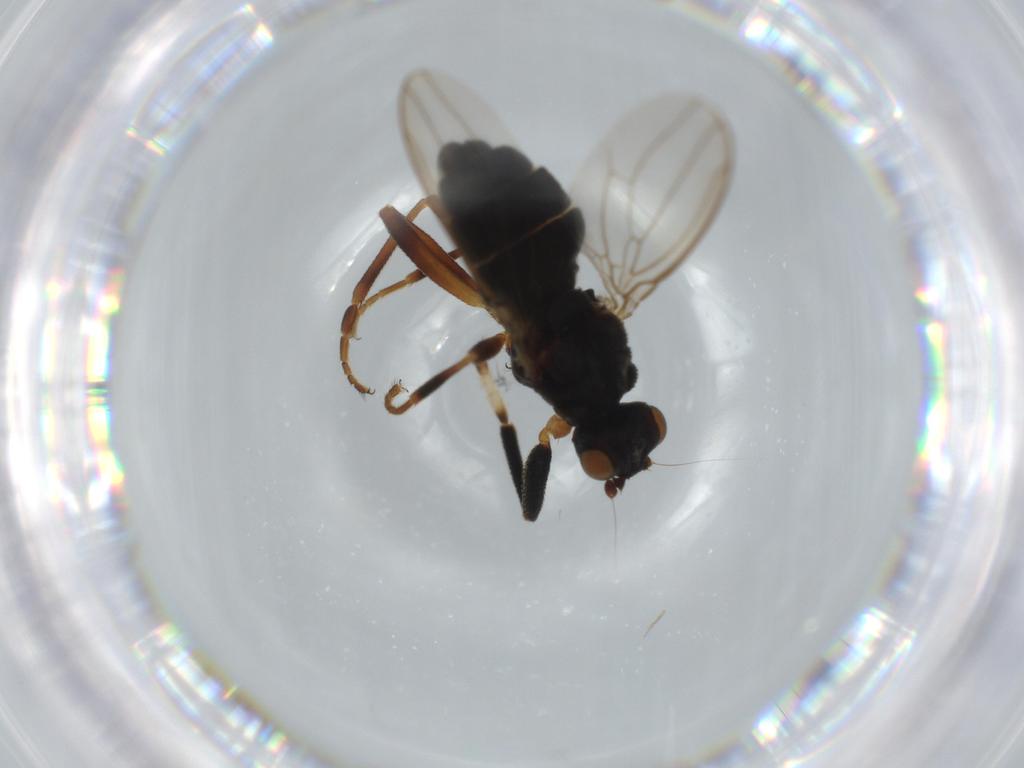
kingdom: Animalia
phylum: Arthropoda
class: Insecta
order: Diptera
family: Sphaeroceridae
